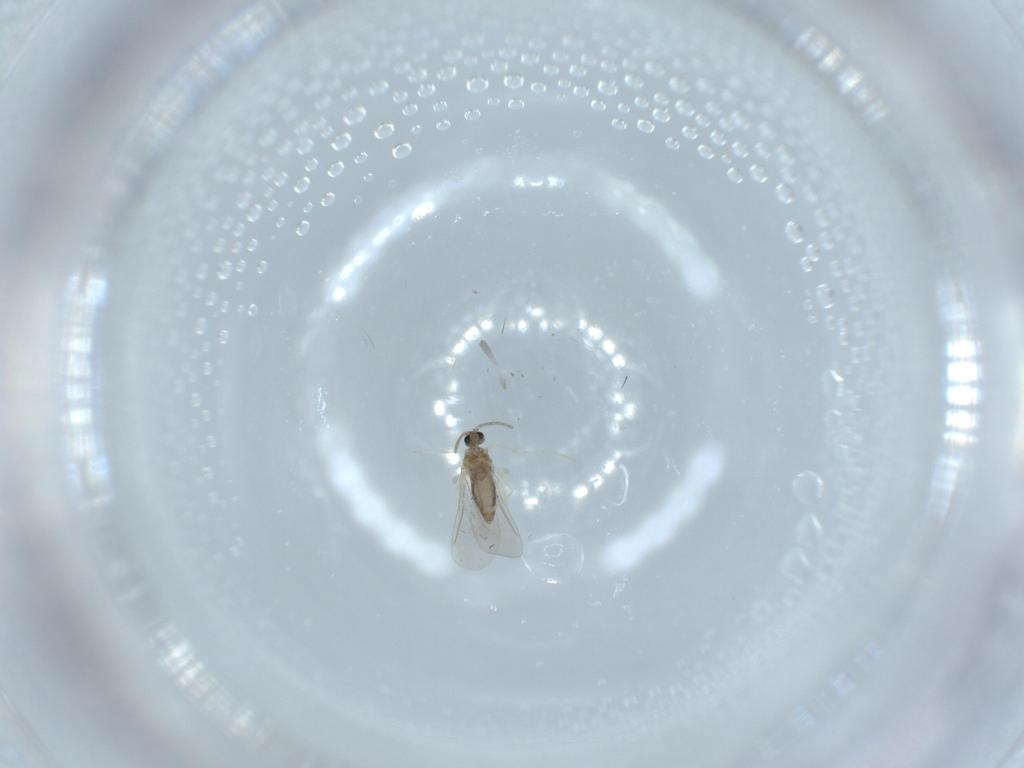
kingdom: Animalia
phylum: Arthropoda
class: Insecta
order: Diptera
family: Cecidomyiidae
